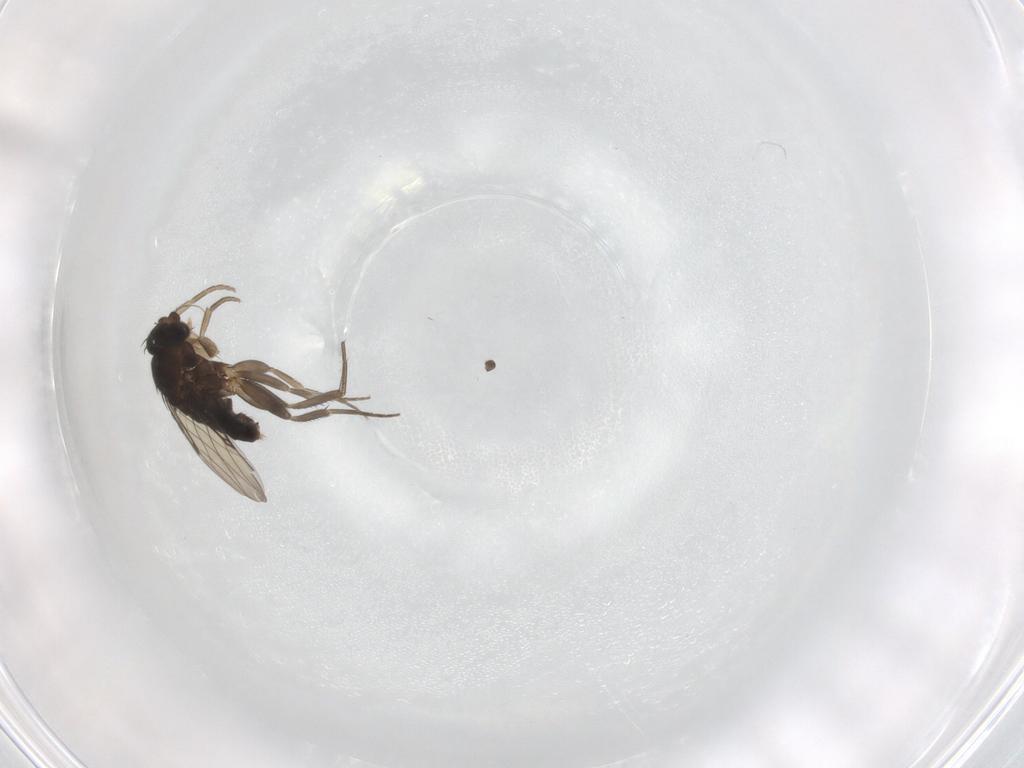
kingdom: Animalia
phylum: Arthropoda
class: Insecta
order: Diptera
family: Phoridae
